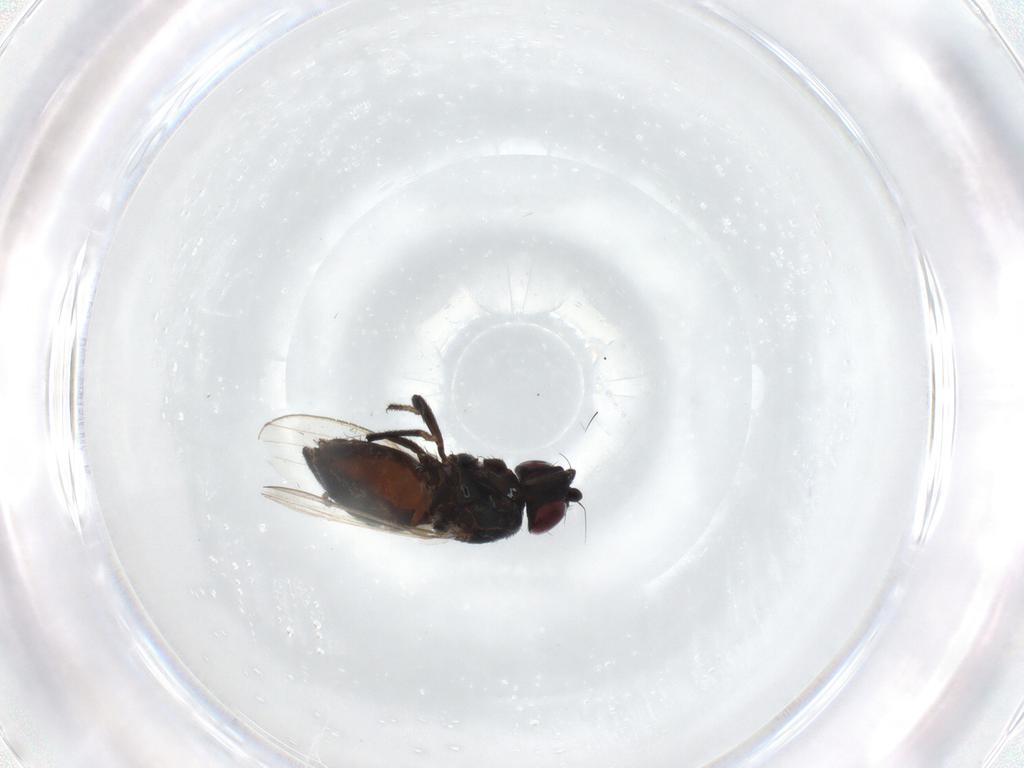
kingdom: Animalia
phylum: Arthropoda
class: Insecta
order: Diptera
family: Milichiidae
